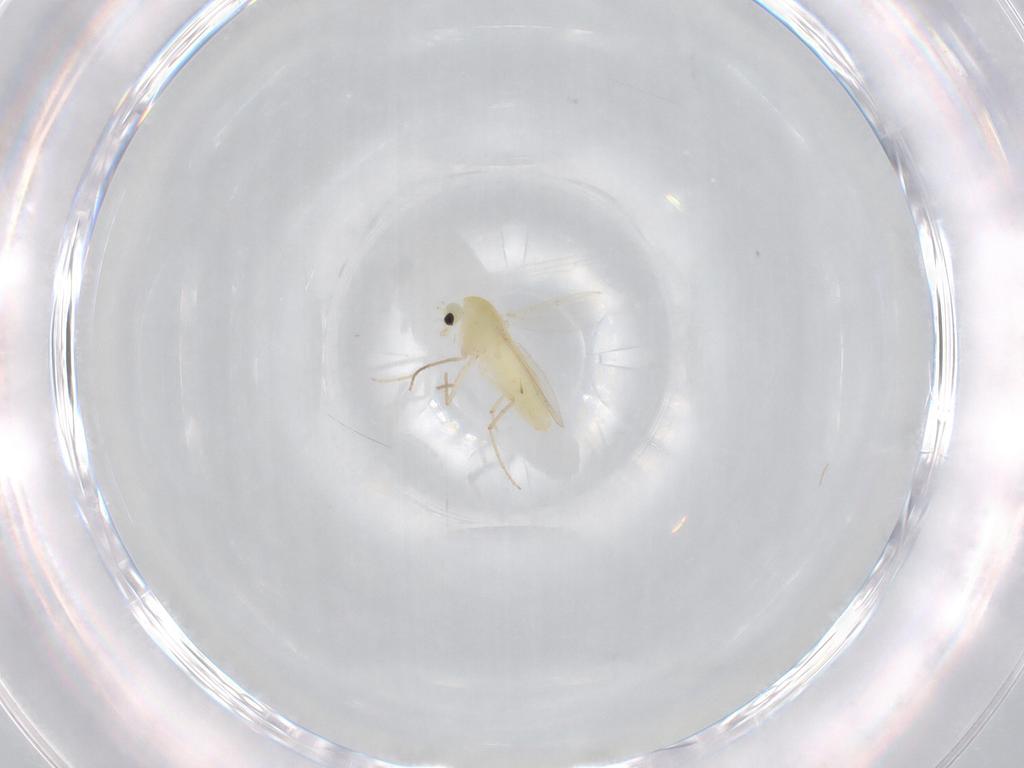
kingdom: Animalia
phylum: Arthropoda
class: Insecta
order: Diptera
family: Chironomidae
